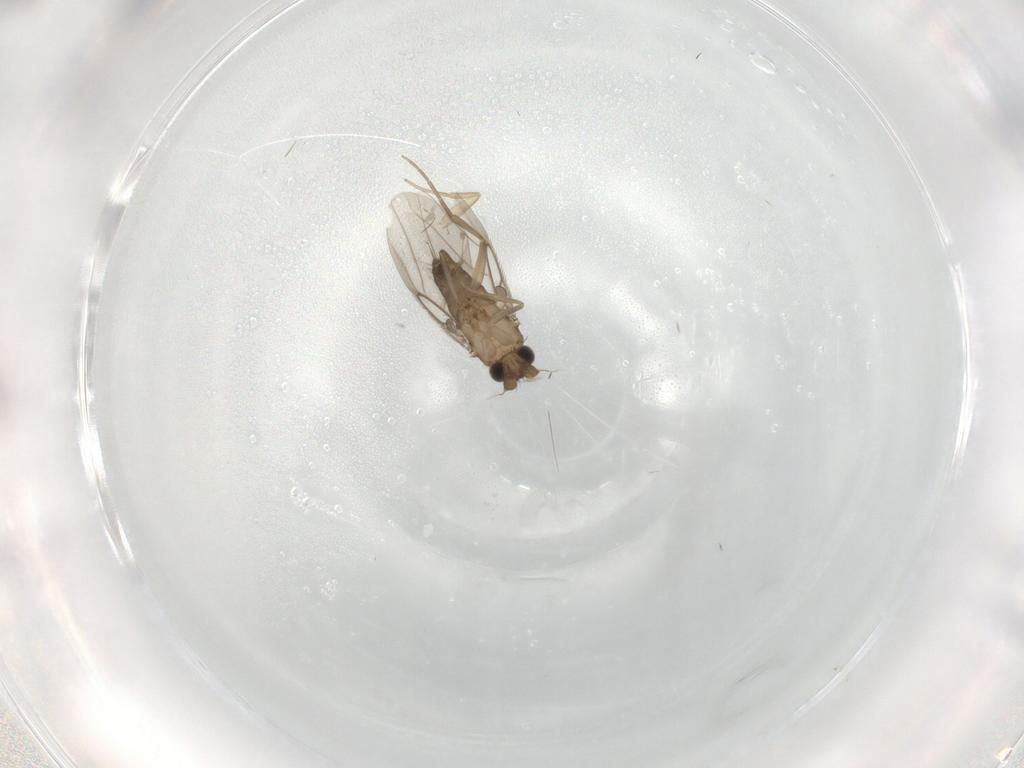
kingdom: Animalia
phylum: Arthropoda
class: Insecta
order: Diptera
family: Phoridae
